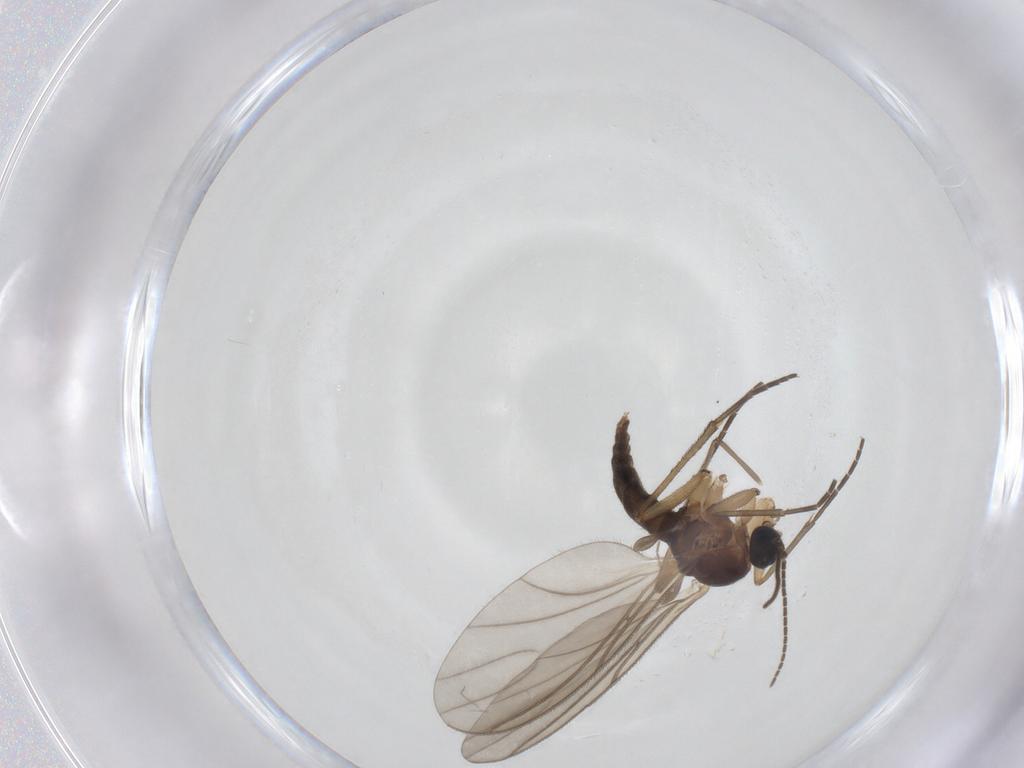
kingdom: Animalia
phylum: Arthropoda
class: Insecta
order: Diptera
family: Sciaridae
